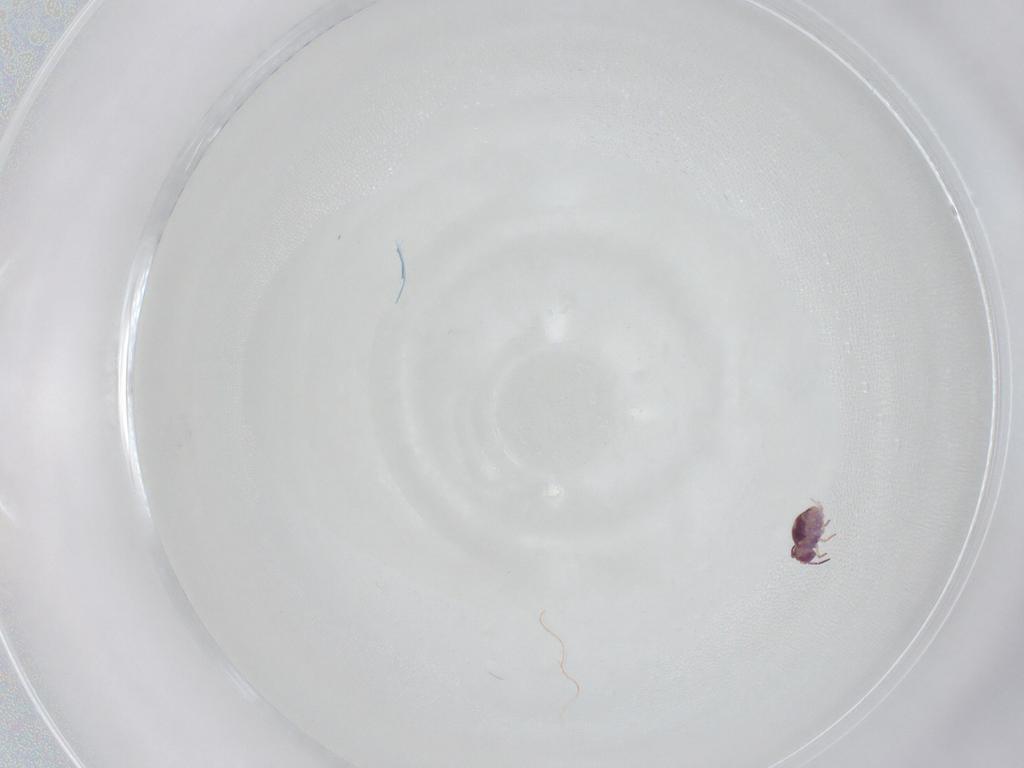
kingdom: Animalia
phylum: Arthropoda
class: Collembola
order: Symphypleona
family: Sminthurididae
